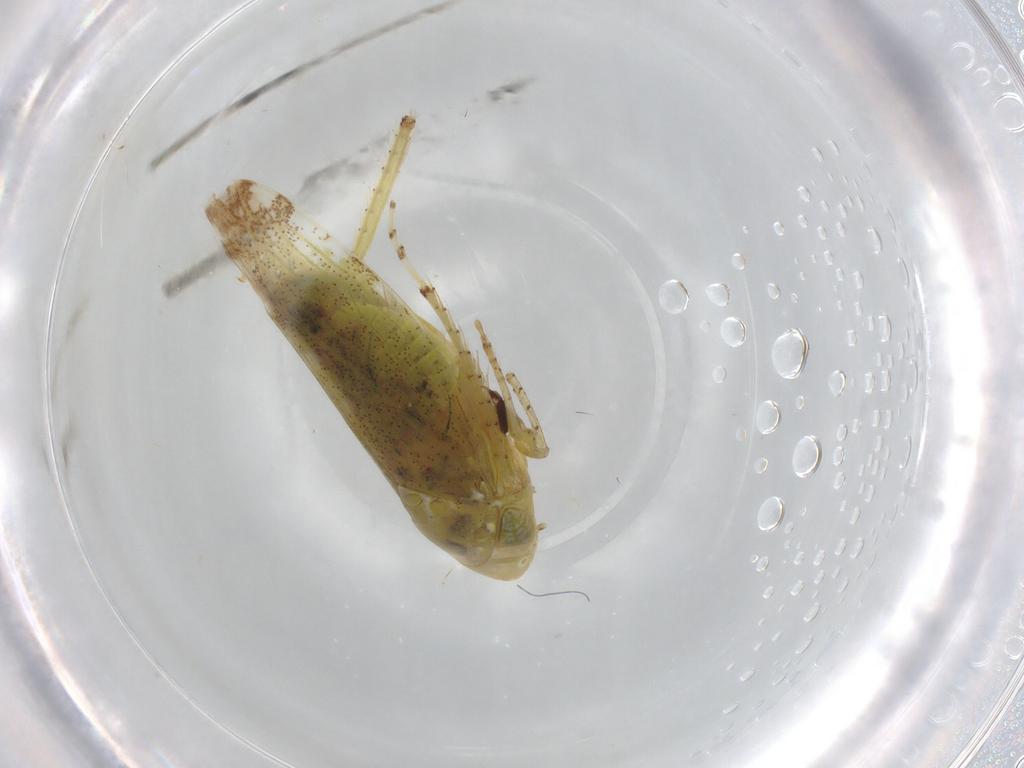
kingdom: Animalia
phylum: Arthropoda
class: Insecta
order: Hemiptera
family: Cicadellidae
